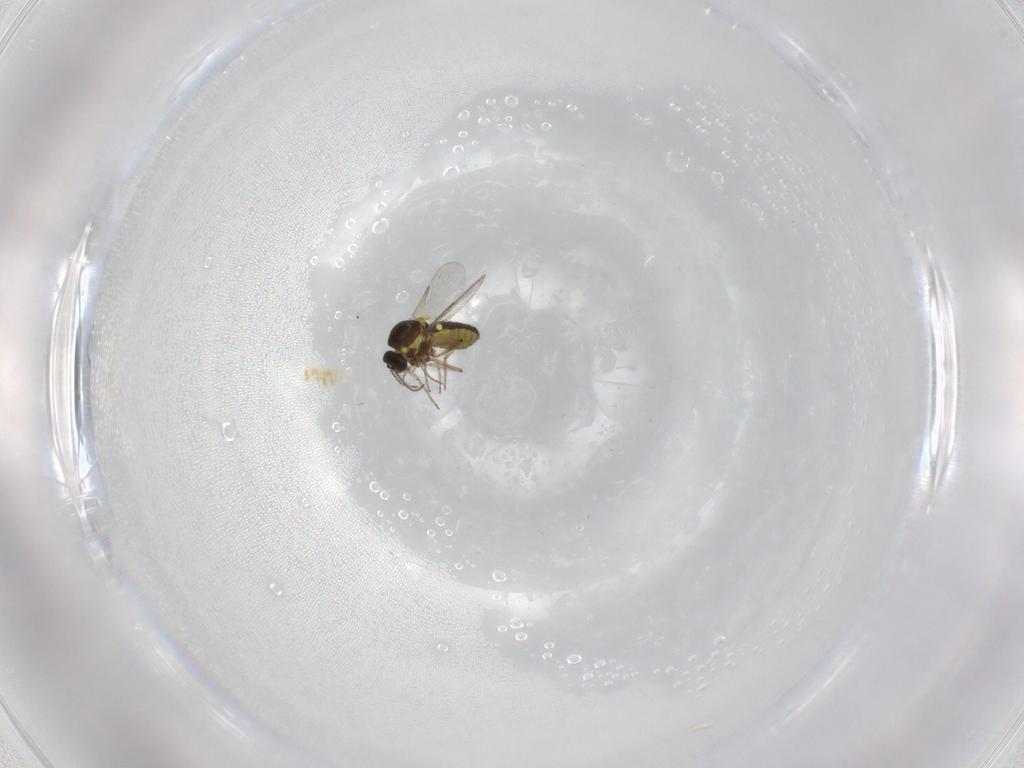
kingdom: Animalia
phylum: Arthropoda
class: Insecta
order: Diptera
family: Ceratopogonidae
